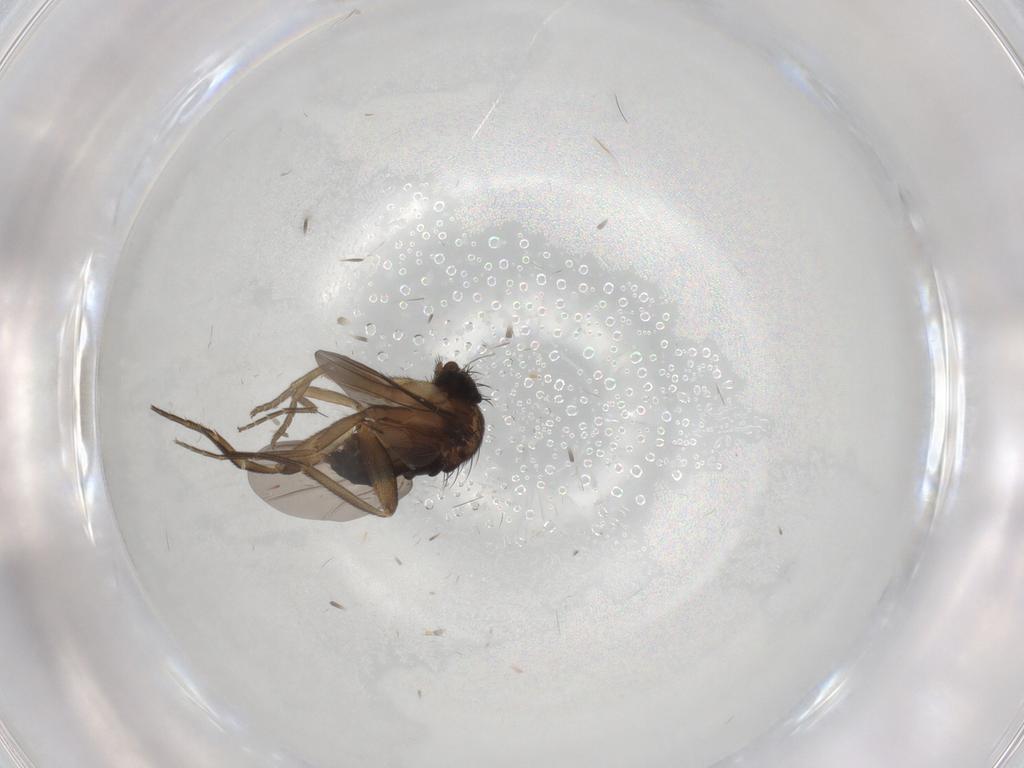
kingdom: Animalia
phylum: Arthropoda
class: Insecta
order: Diptera
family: Phoridae
